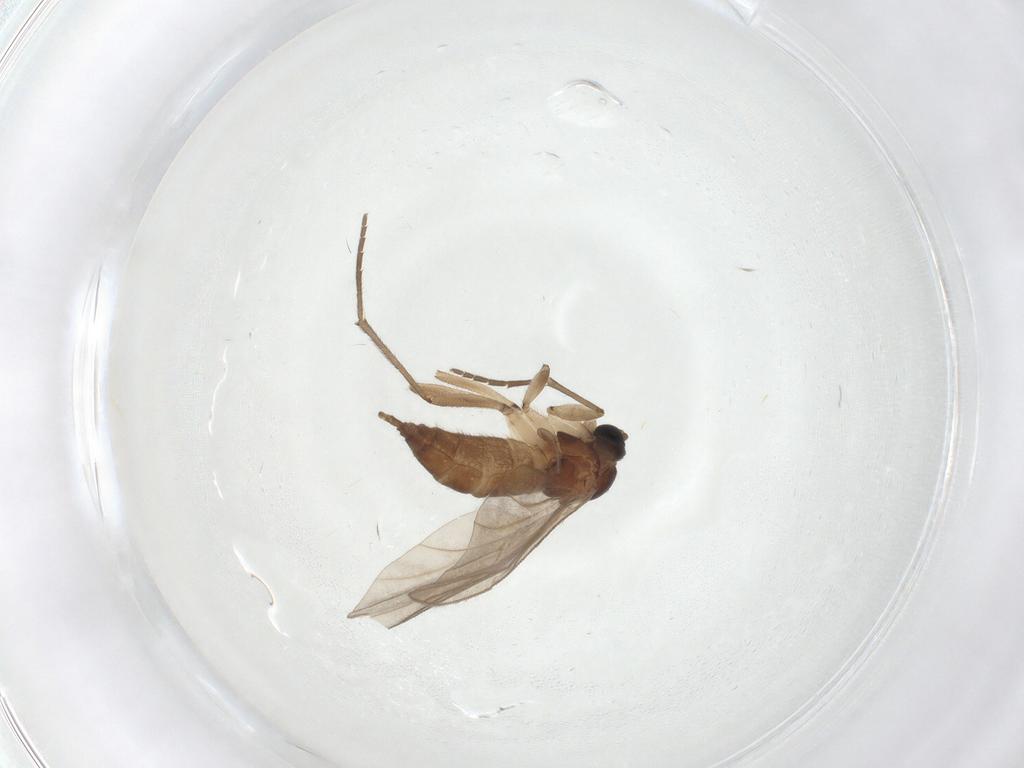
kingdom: Animalia
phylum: Arthropoda
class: Insecta
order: Diptera
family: Sciaridae
